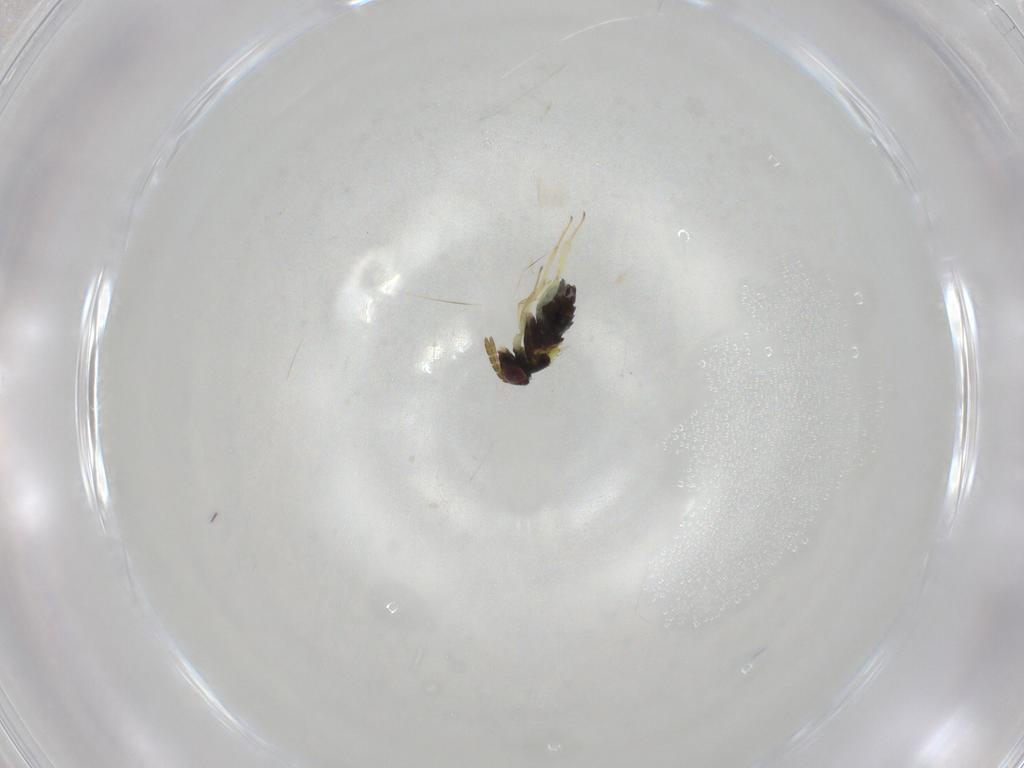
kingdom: Animalia
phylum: Arthropoda
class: Insecta
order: Hymenoptera
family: Aphelinidae
